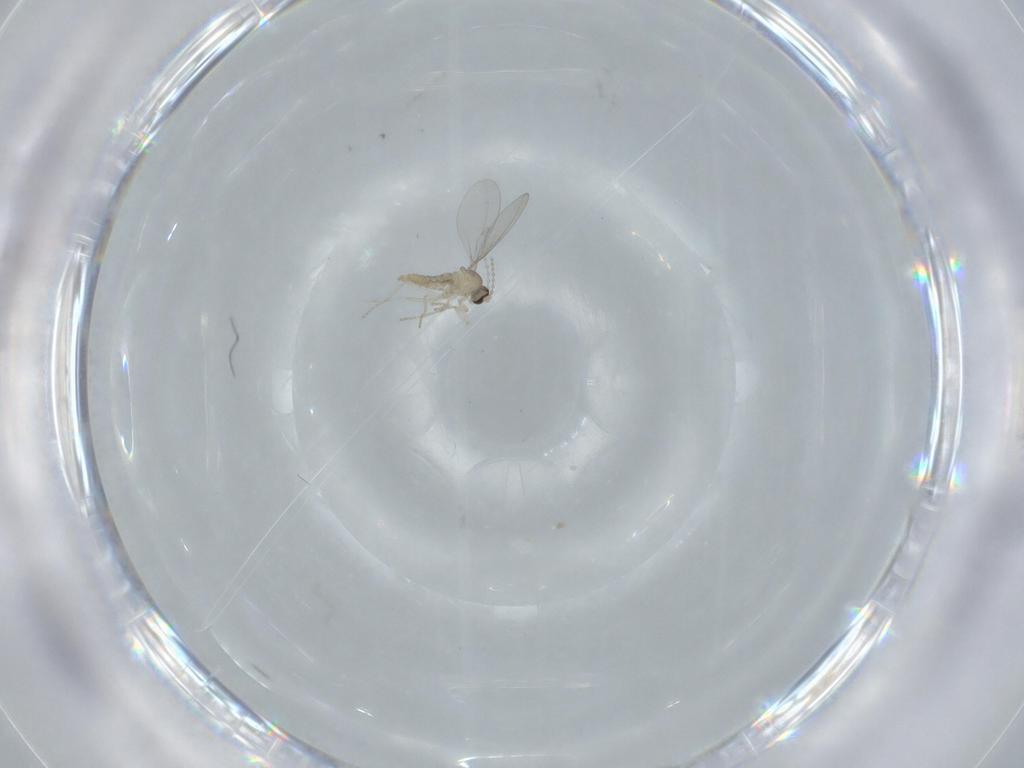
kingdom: Animalia
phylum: Arthropoda
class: Insecta
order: Diptera
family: Cecidomyiidae
